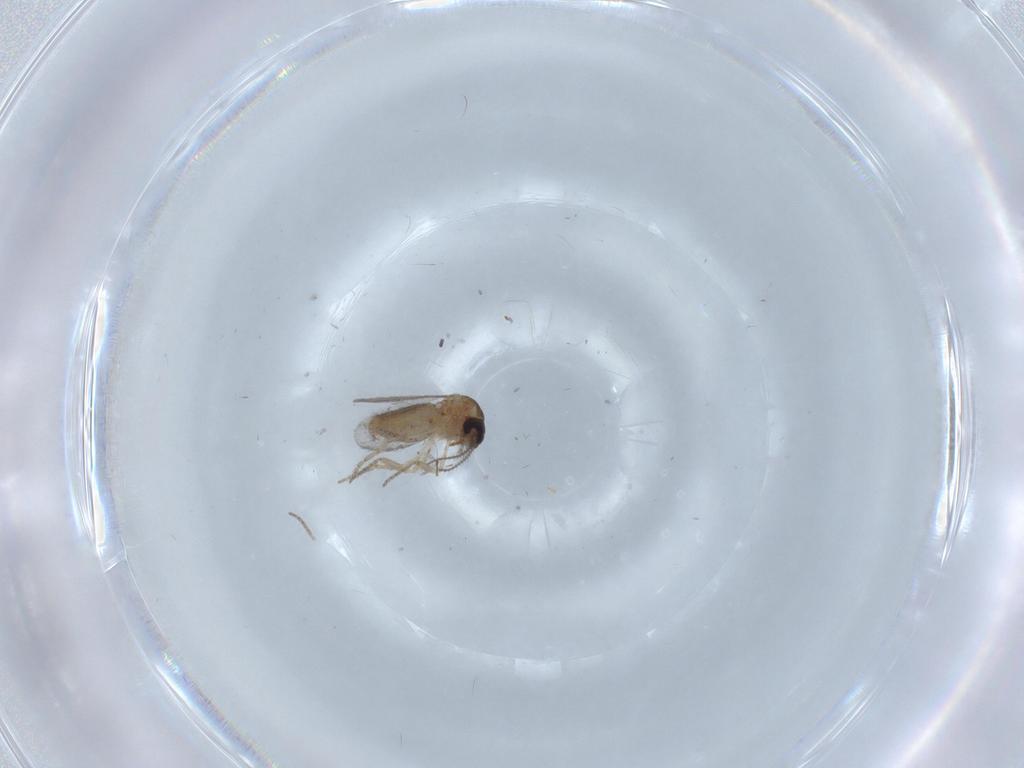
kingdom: Animalia
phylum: Arthropoda
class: Insecta
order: Diptera
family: Ceratopogonidae
